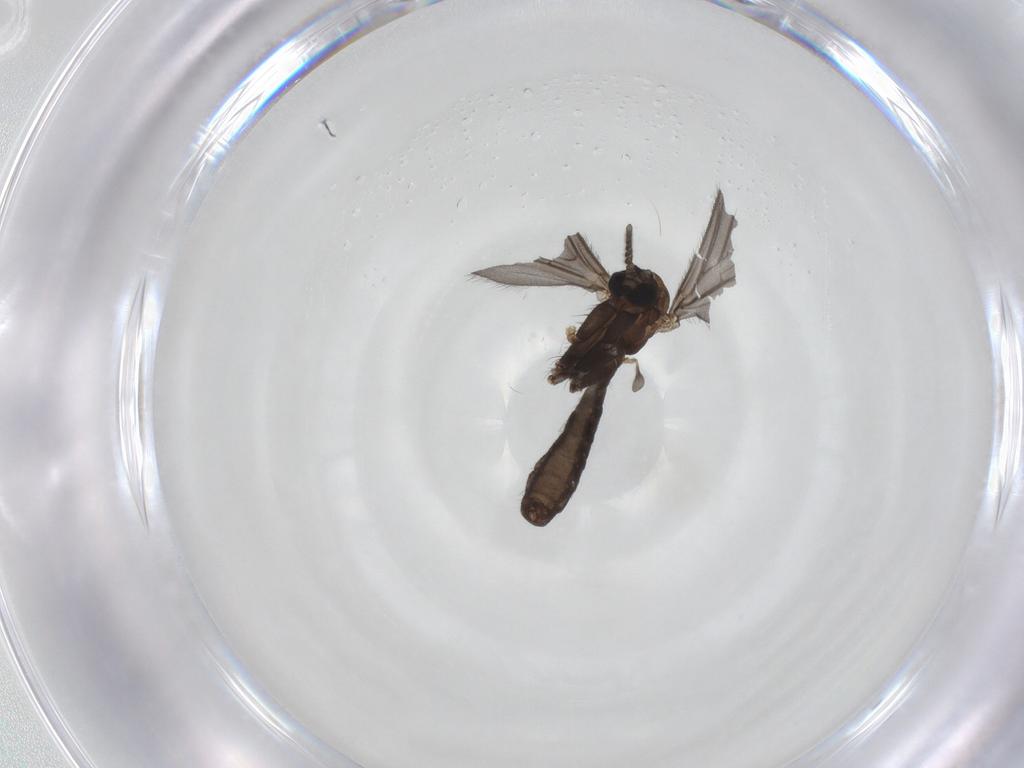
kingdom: Animalia
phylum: Arthropoda
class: Insecta
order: Diptera
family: Ditomyiidae
